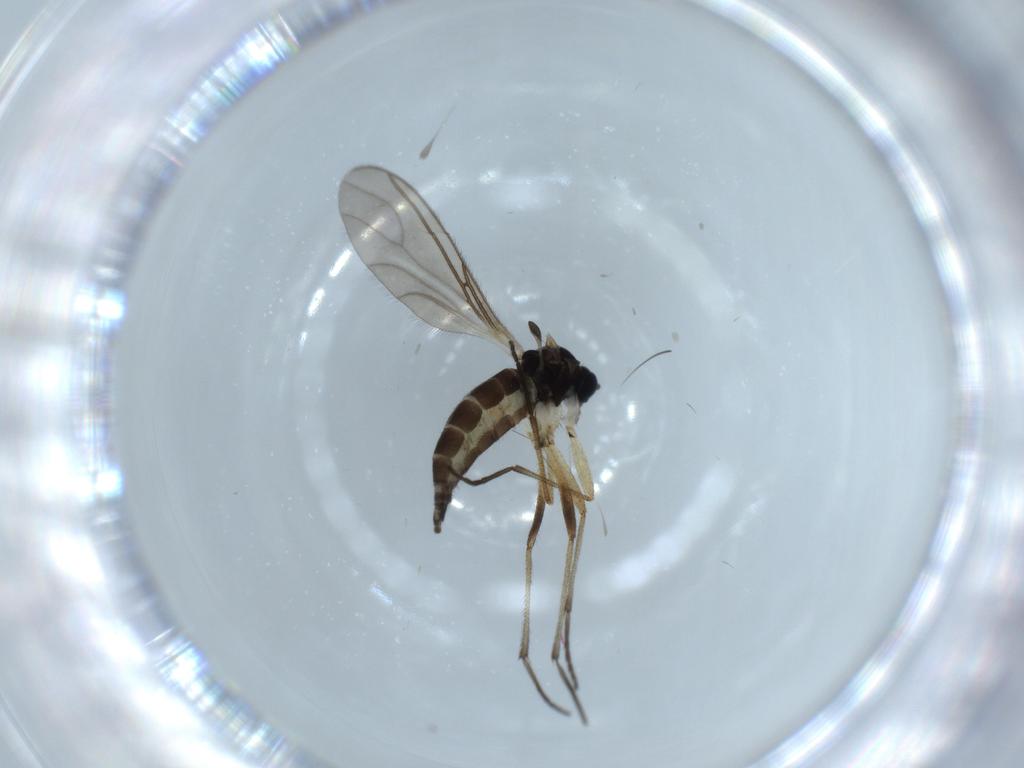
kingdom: Animalia
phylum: Arthropoda
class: Insecta
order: Diptera
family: Sciaridae
